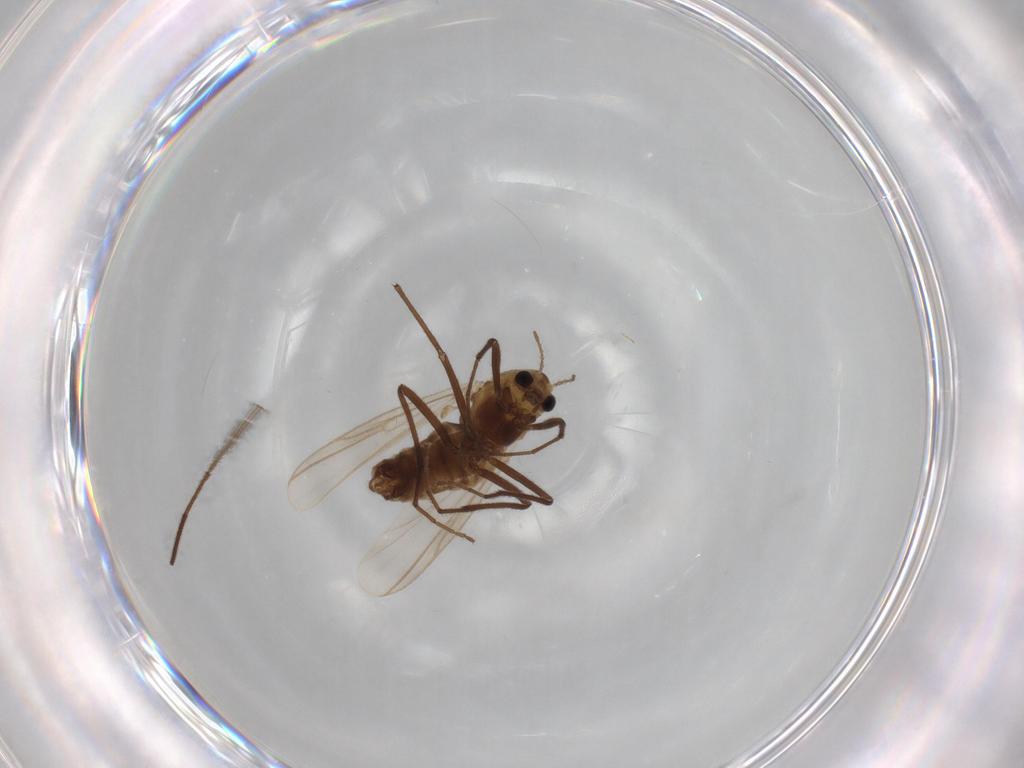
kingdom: Animalia
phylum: Arthropoda
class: Insecta
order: Diptera
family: Chironomidae
